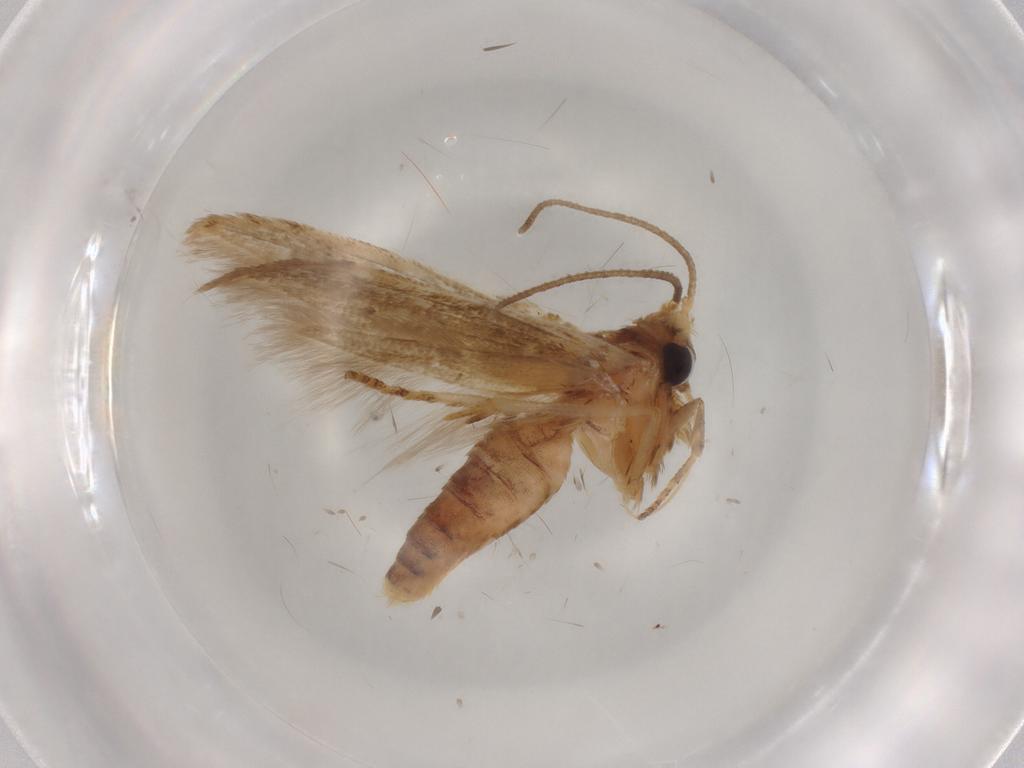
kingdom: Animalia
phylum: Arthropoda
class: Insecta
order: Lepidoptera
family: Blastobasidae
